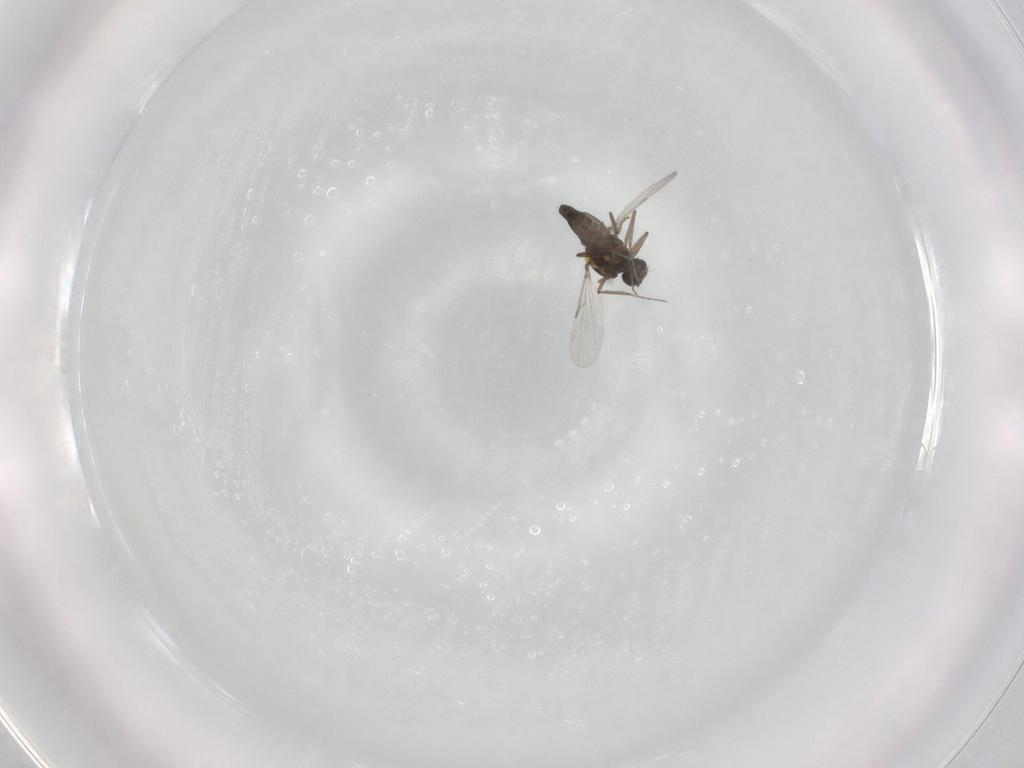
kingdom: Animalia
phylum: Arthropoda
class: Insecta
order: Diptera
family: Ceratopogonidae
